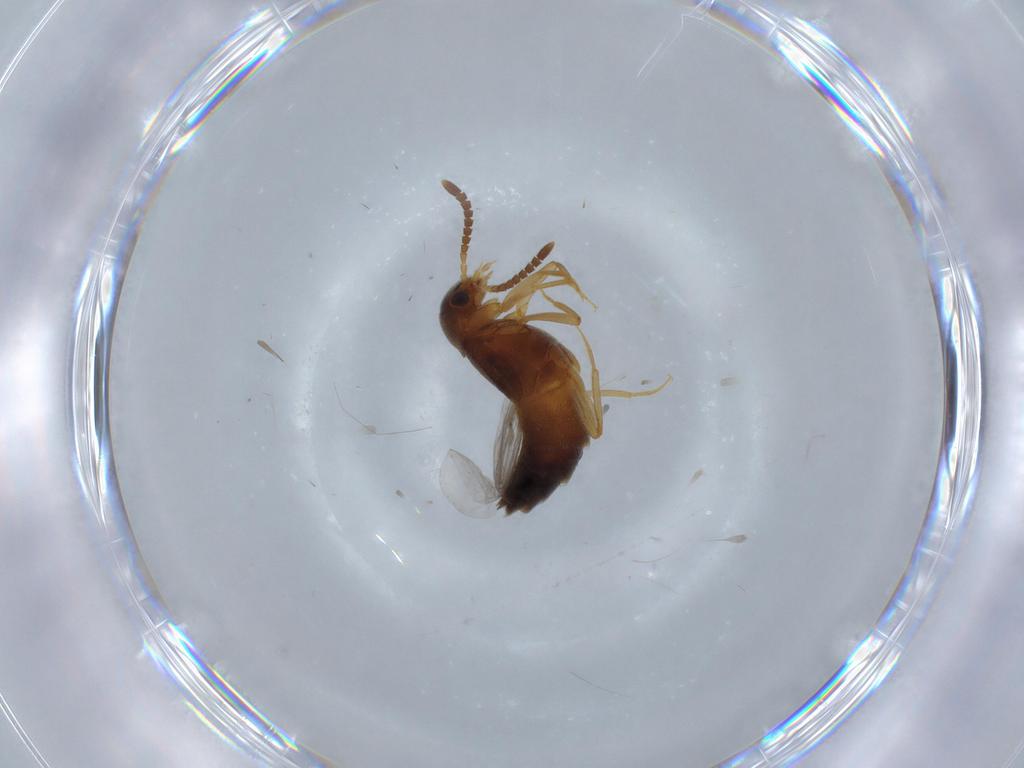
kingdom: Animalia
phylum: Arthropoda
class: Insecta
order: Coleoptera
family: Staphylinidae
